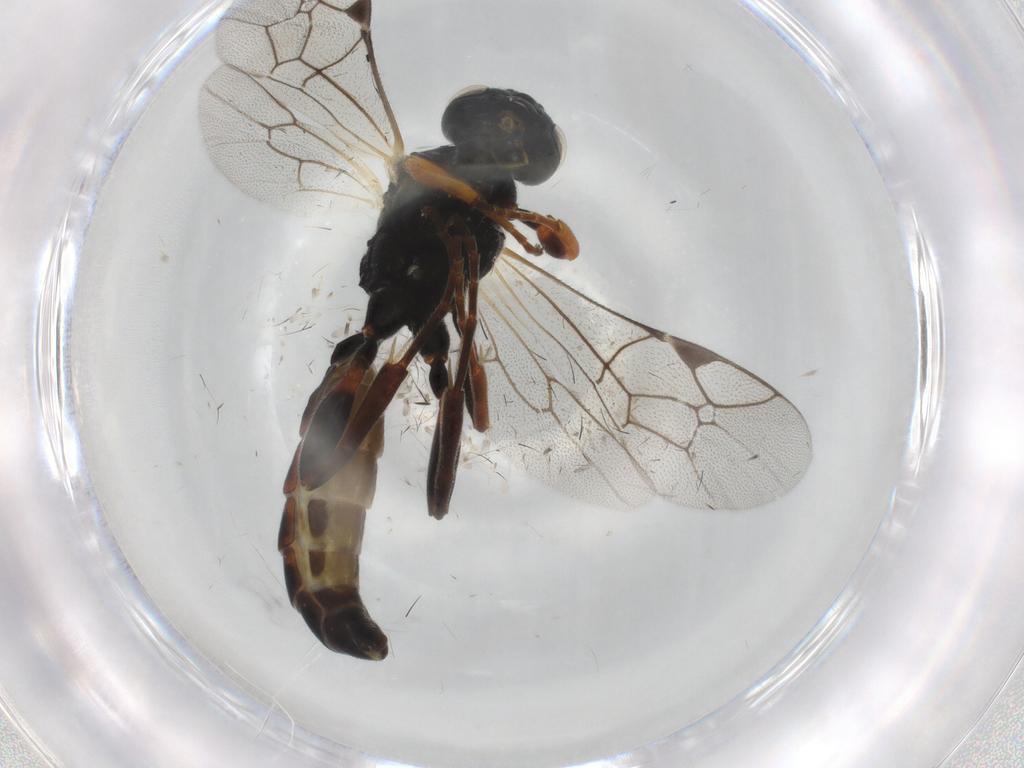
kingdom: Animalia
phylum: Arthropoda
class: Insecta
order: Hymenoptera
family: Ichneumonidae
